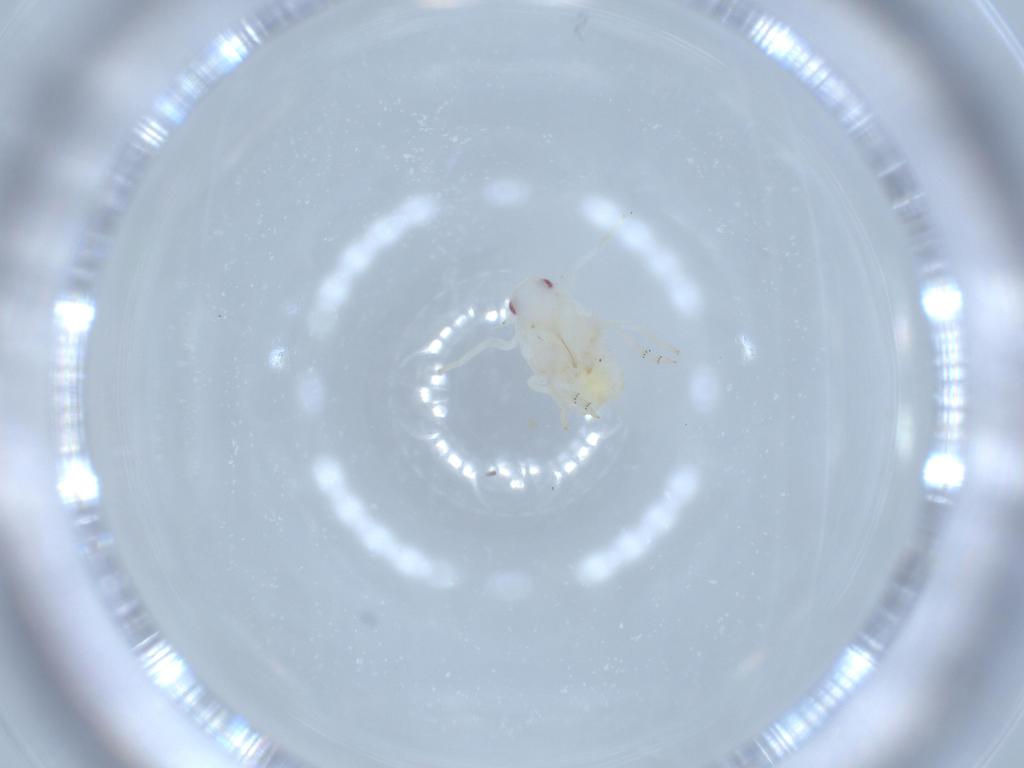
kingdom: Animalia
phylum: Arthropoda
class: Insecta
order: Hemiptera
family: Flatidae
